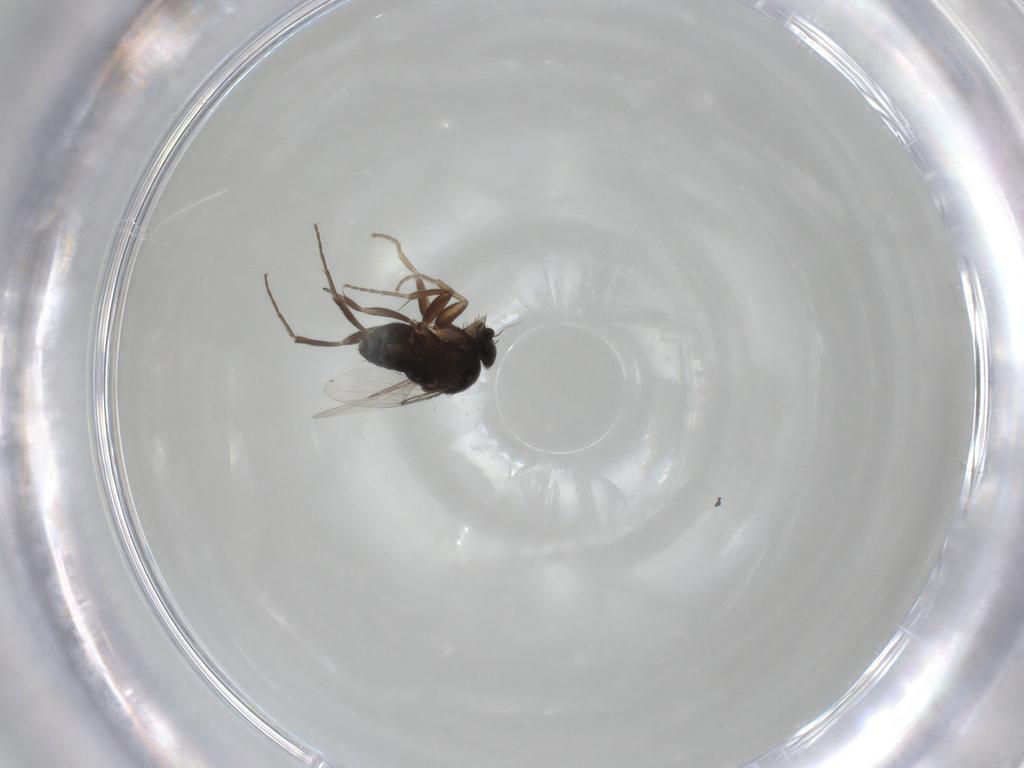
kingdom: Animalia
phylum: Arthropoda
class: Insecta
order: Diptera
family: Phoridae
